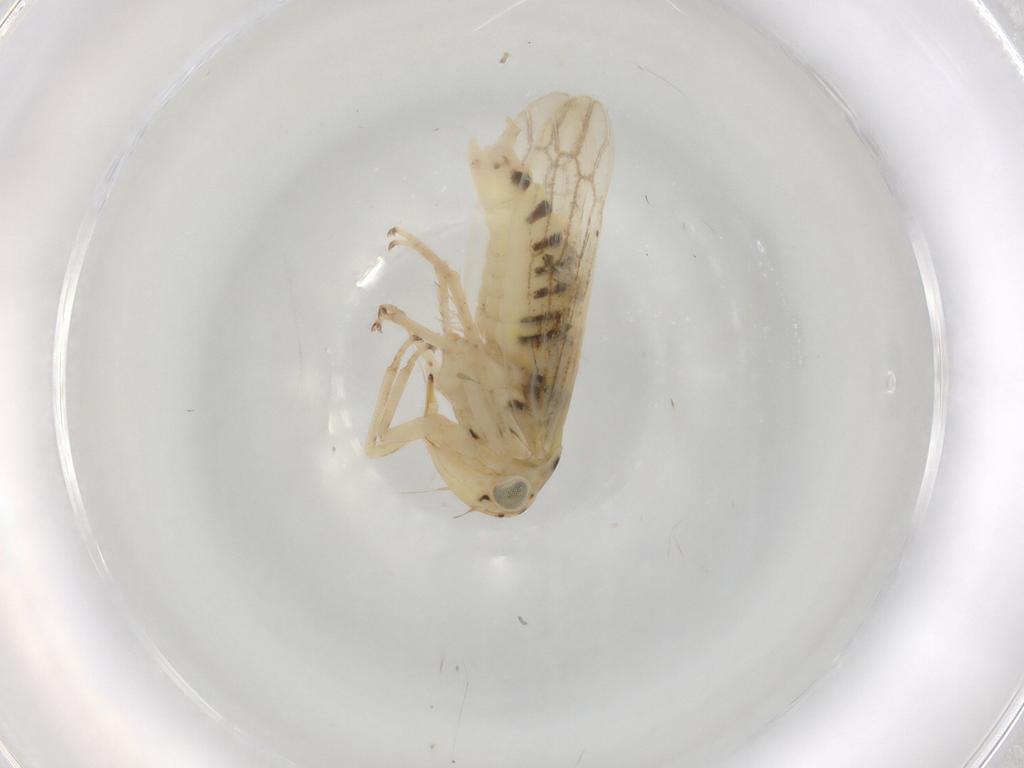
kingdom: Animalia
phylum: Arthropoda
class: Insecta
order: Hemiptera
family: Cicadellidae
